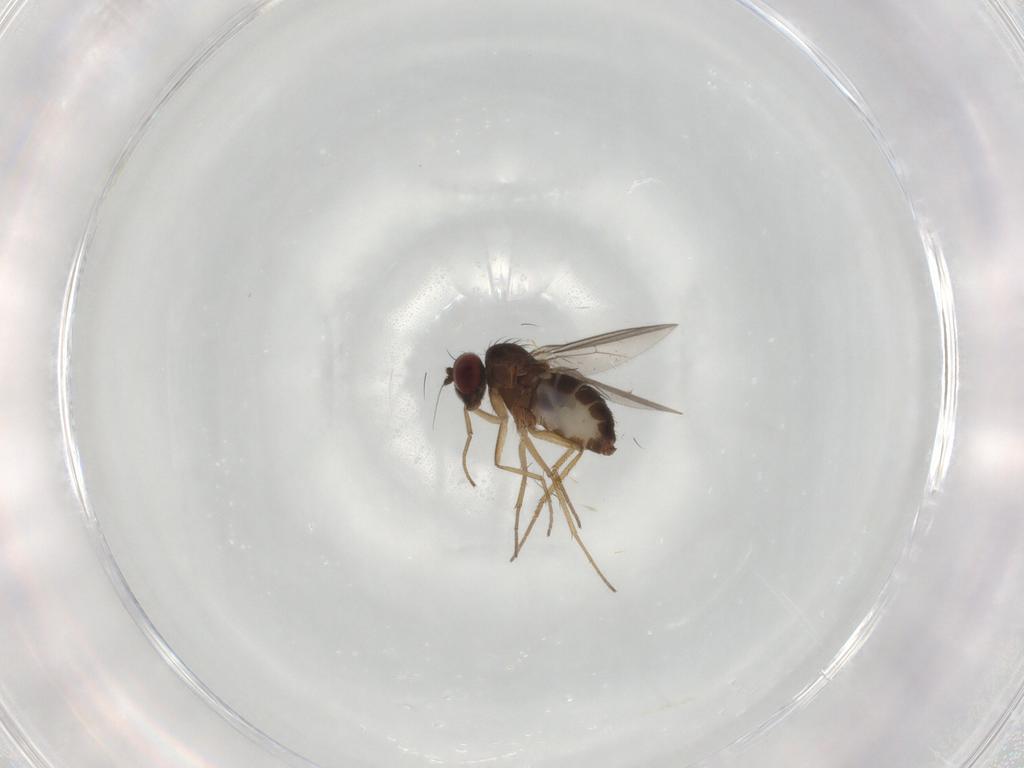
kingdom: Animalia
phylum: Arthropoda
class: Insecta
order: Diptera
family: Dolichopodidae
